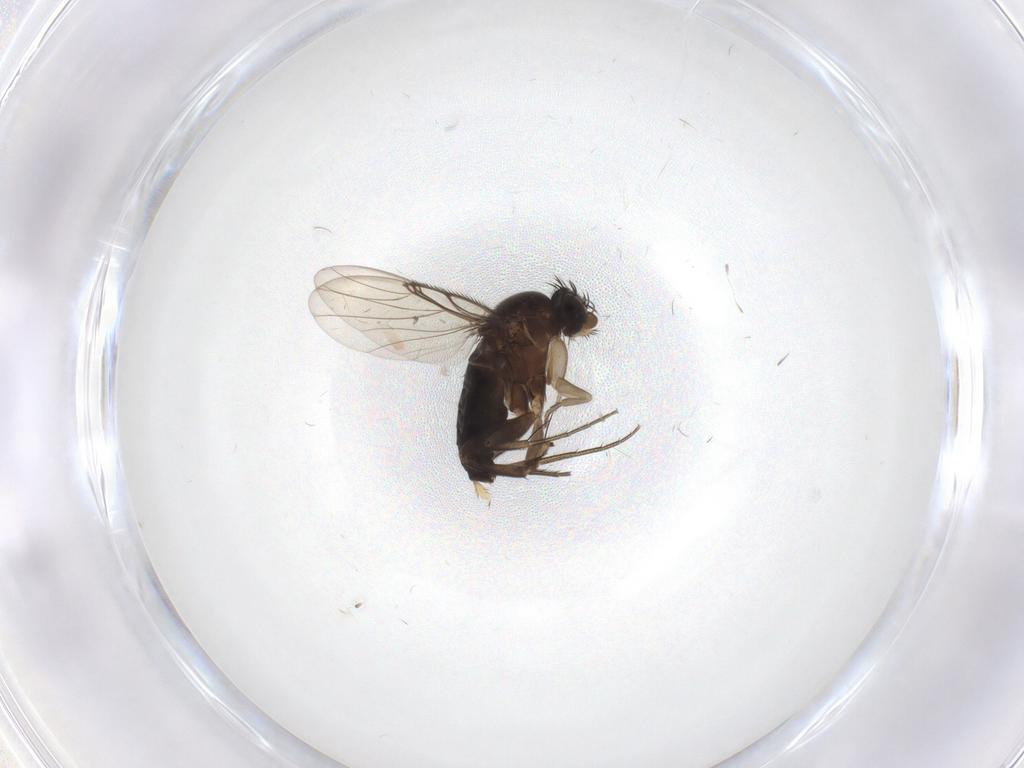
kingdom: Animalia
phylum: Arthropoda
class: Insecta
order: Diptera
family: Phoridae
